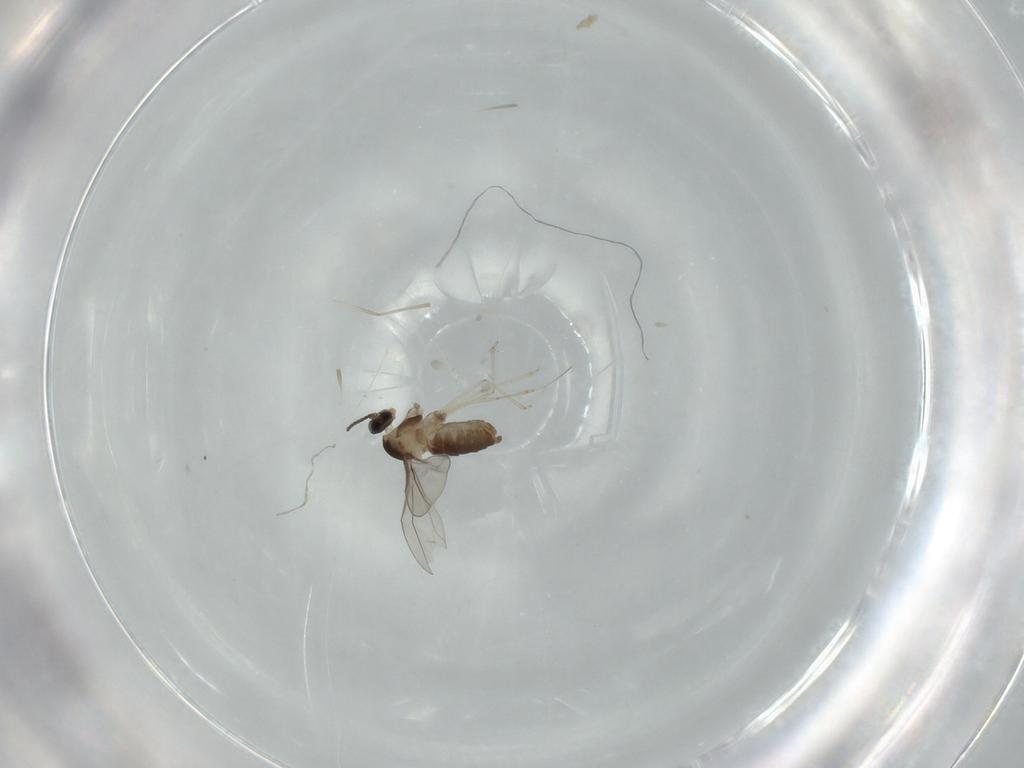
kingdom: Animalia
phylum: Arthropoda
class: Insecta
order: Diptera
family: Cecidomyiidae
